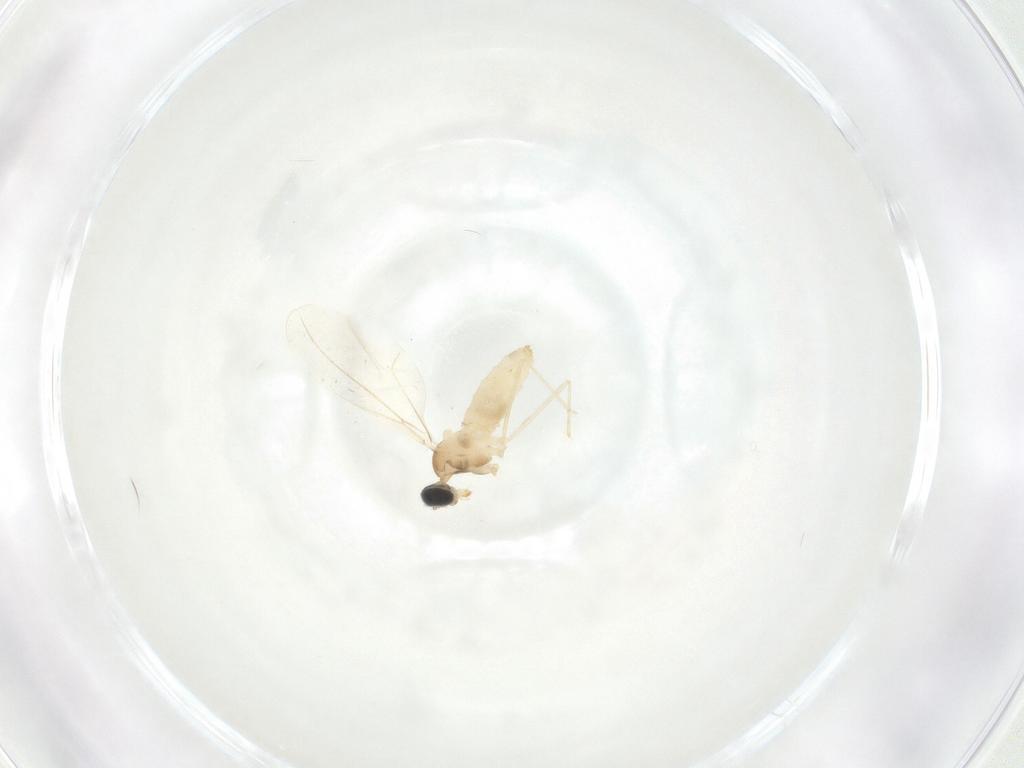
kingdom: Animalia
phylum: Arthropoda
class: Insecta
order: Diptera
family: Cecidomyiidae
